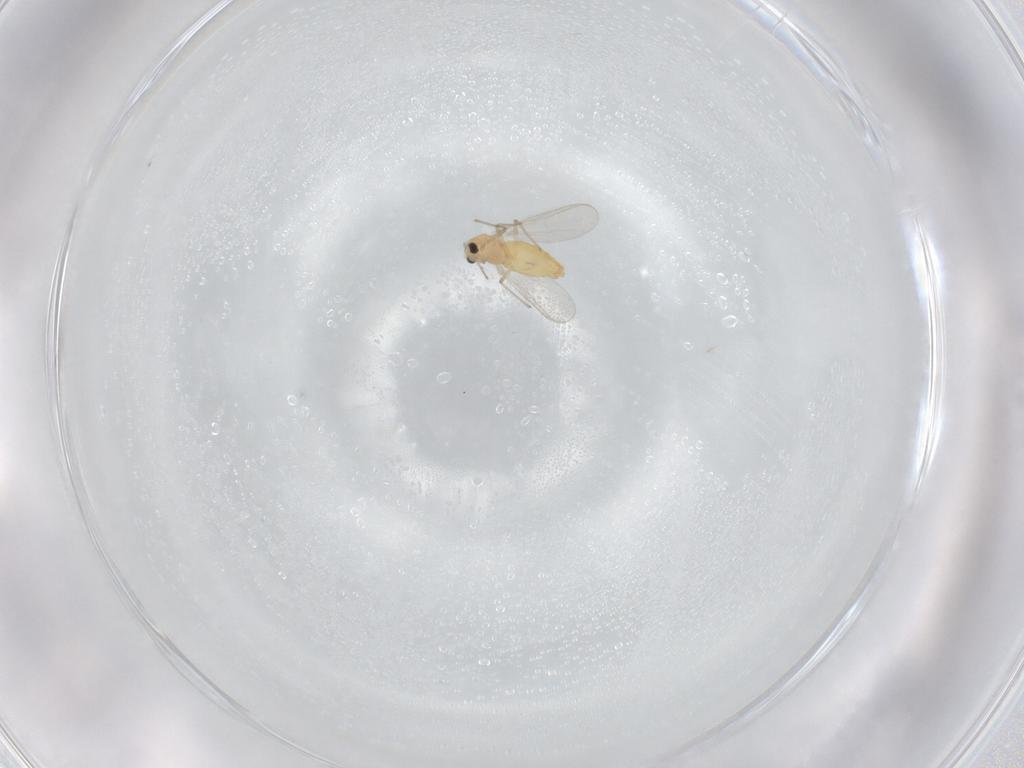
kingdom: Animalia
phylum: Arthropoda
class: Insecta
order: Diptera
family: Chironomidae
